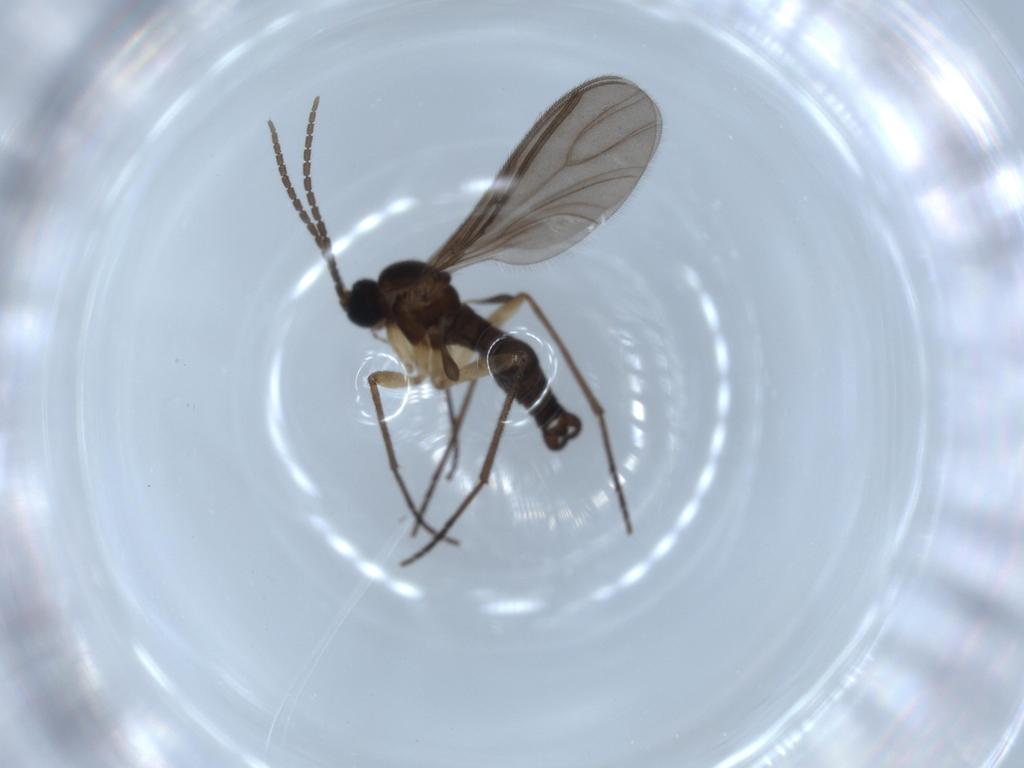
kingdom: Animalia
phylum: Arthropoda
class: Insecta
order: Diptera
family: Sciaridae
